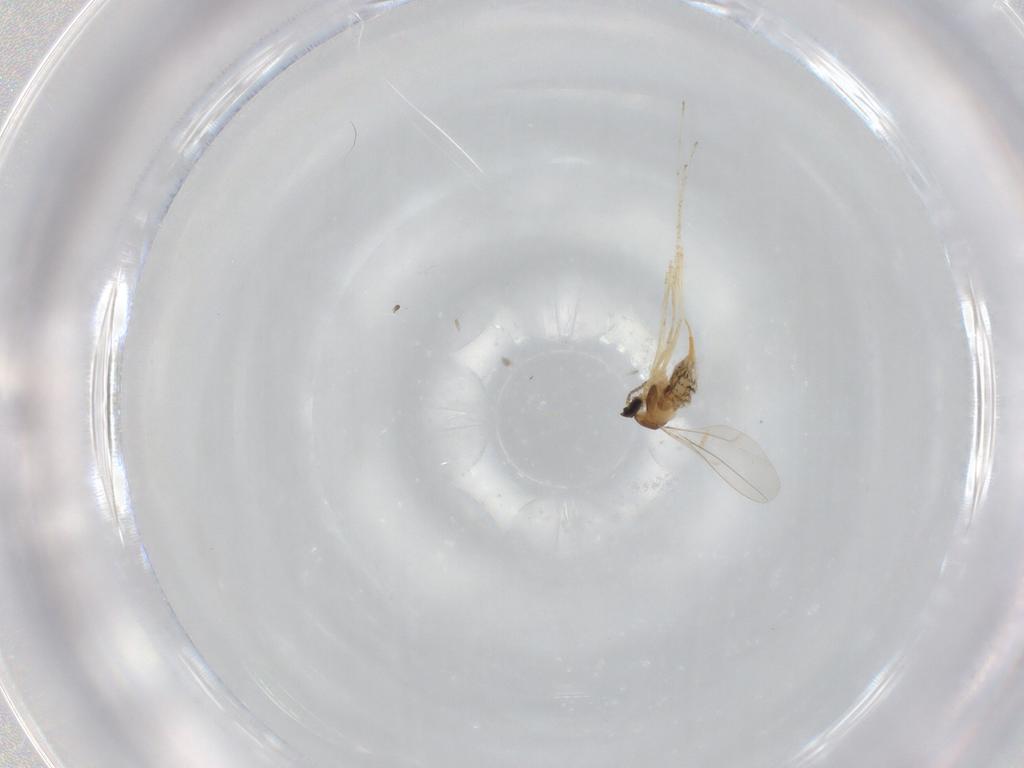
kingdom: Animalia
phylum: Arthropoda
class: Insecta
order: Diptera
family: Cecidomyiidae
